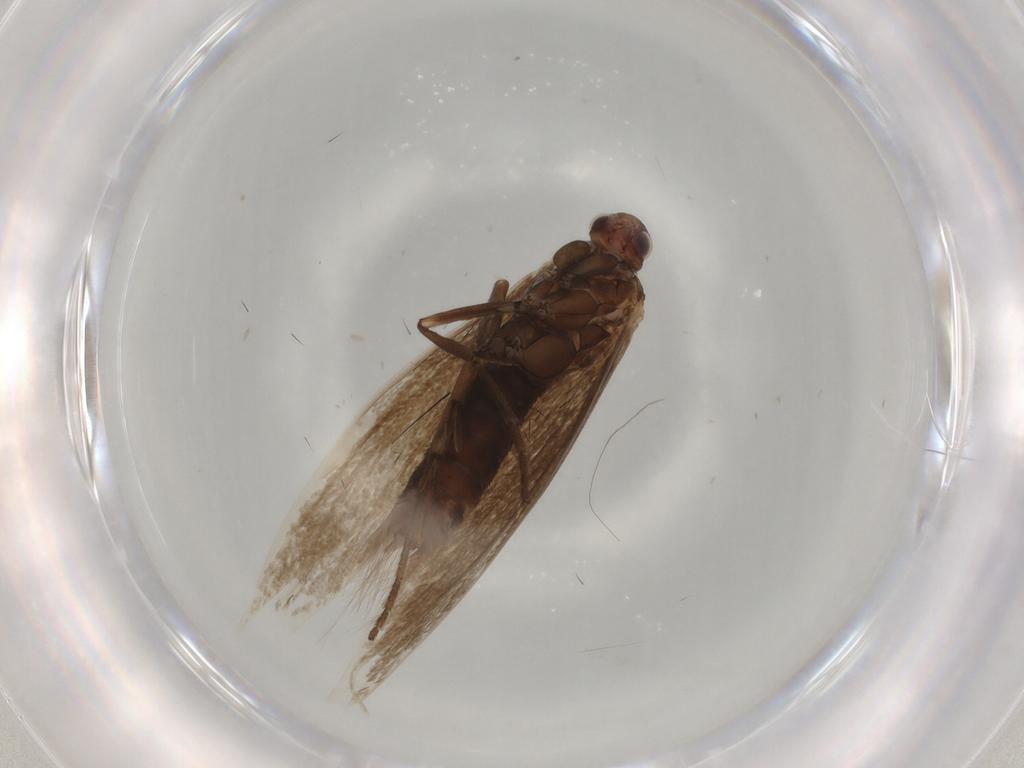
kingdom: Animalia
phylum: Arthropoda
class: Insecta
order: Lepidoptera
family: Coleophoridae
